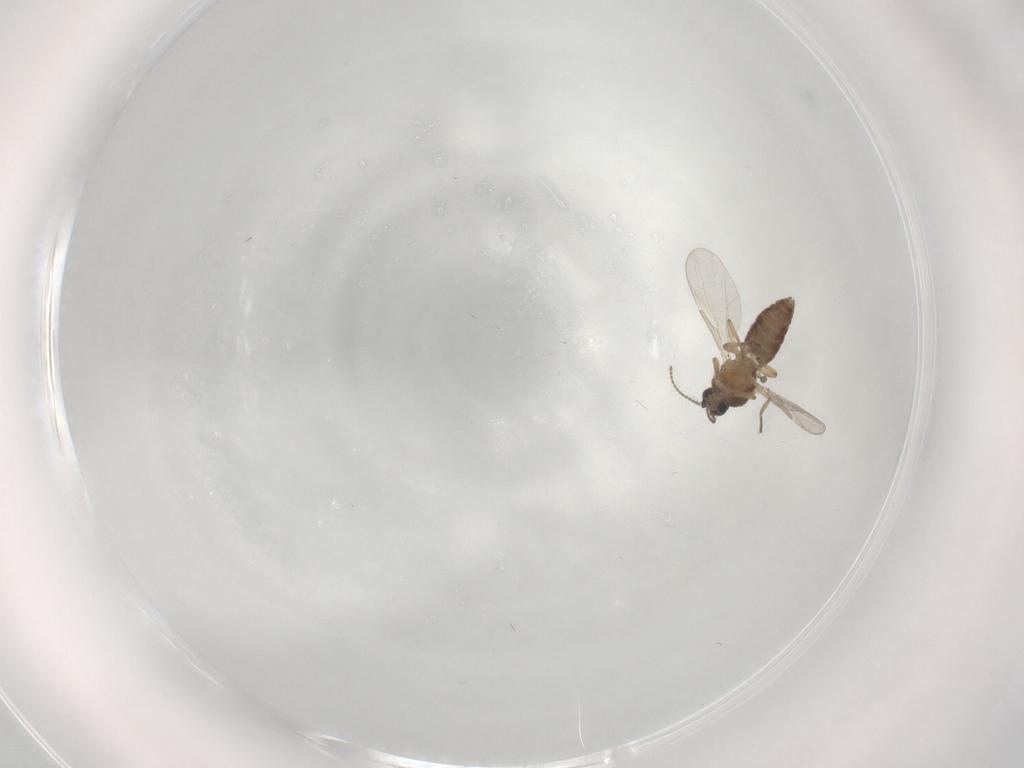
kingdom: Animalia
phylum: Arthropoda
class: Insecta
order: Diptera
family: Ceratopogonidae
